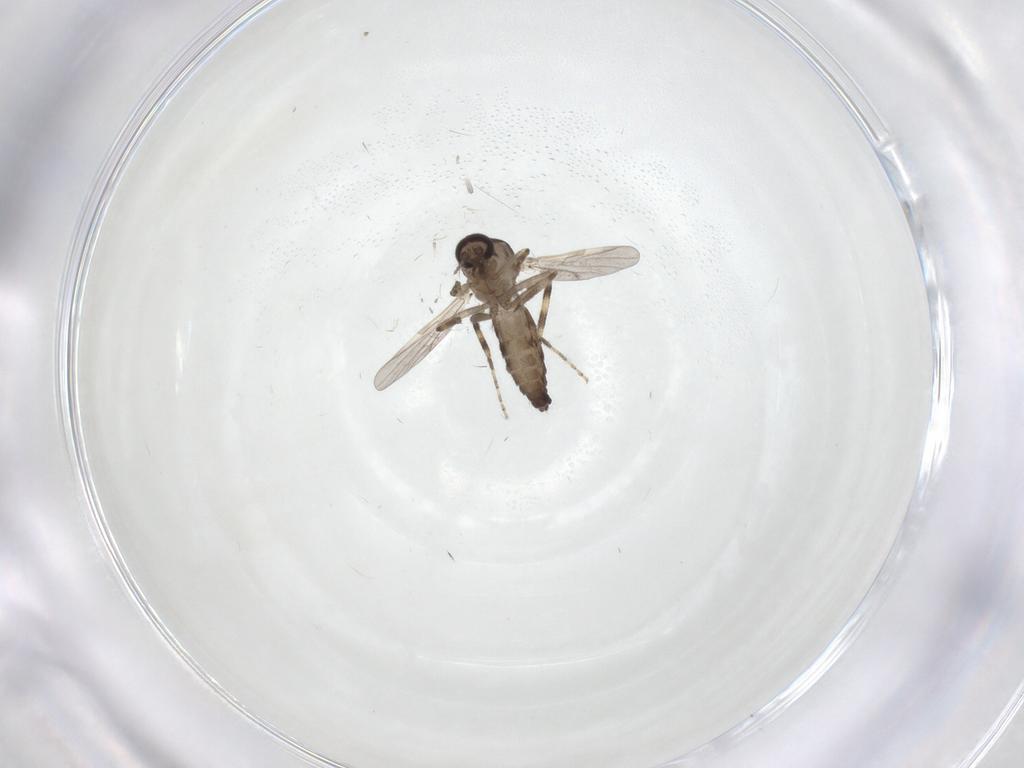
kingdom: Animalia
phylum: Arthropoda
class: Insecta
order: Diptera
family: Ceratopogonidae
